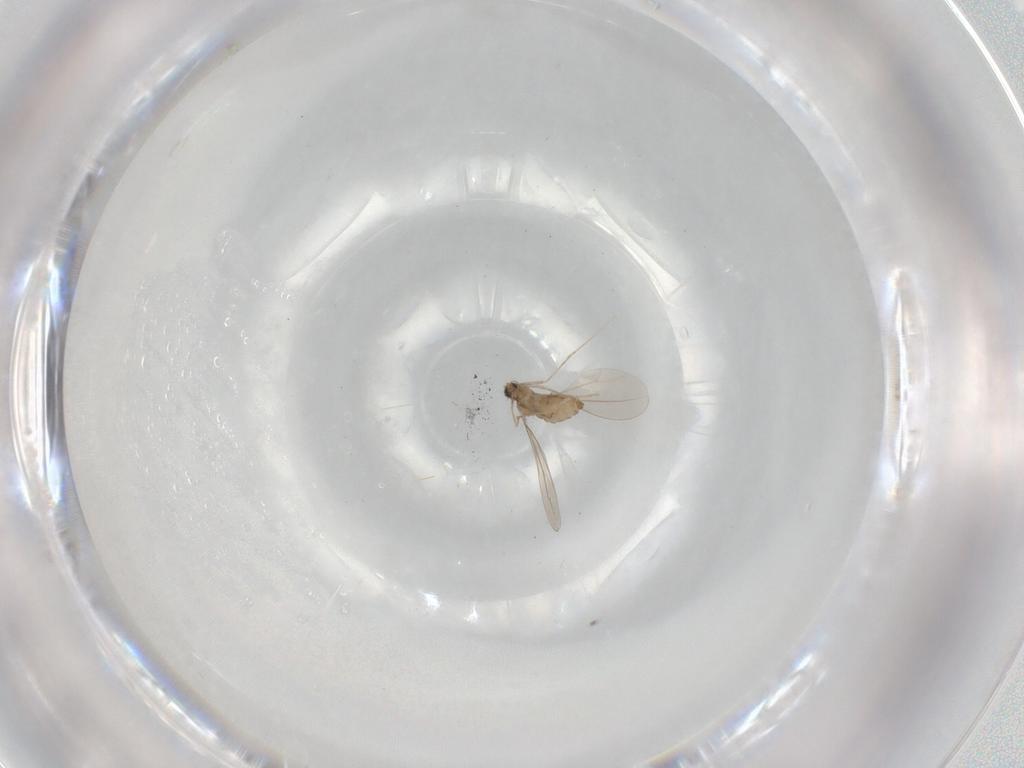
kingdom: Animalia
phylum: Arthropoda
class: Insecta
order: Diptera
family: Cecidomyiidae
